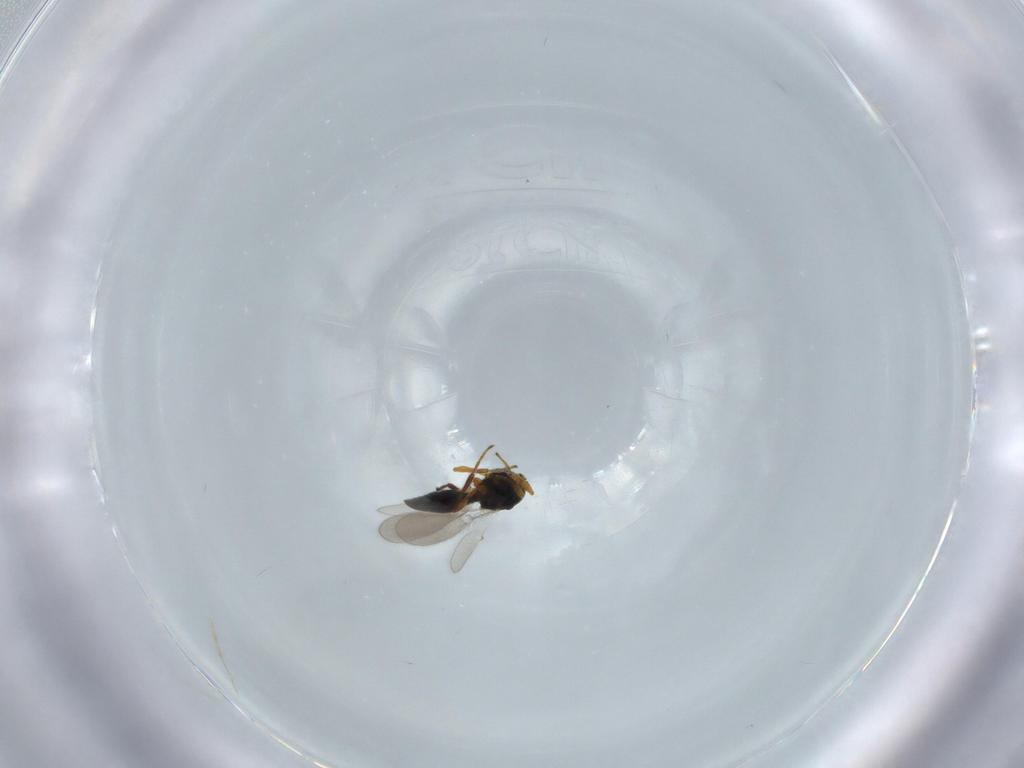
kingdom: Animalia
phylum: Arthropoda
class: Insecta
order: Hymenoptera
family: Platygastridae
